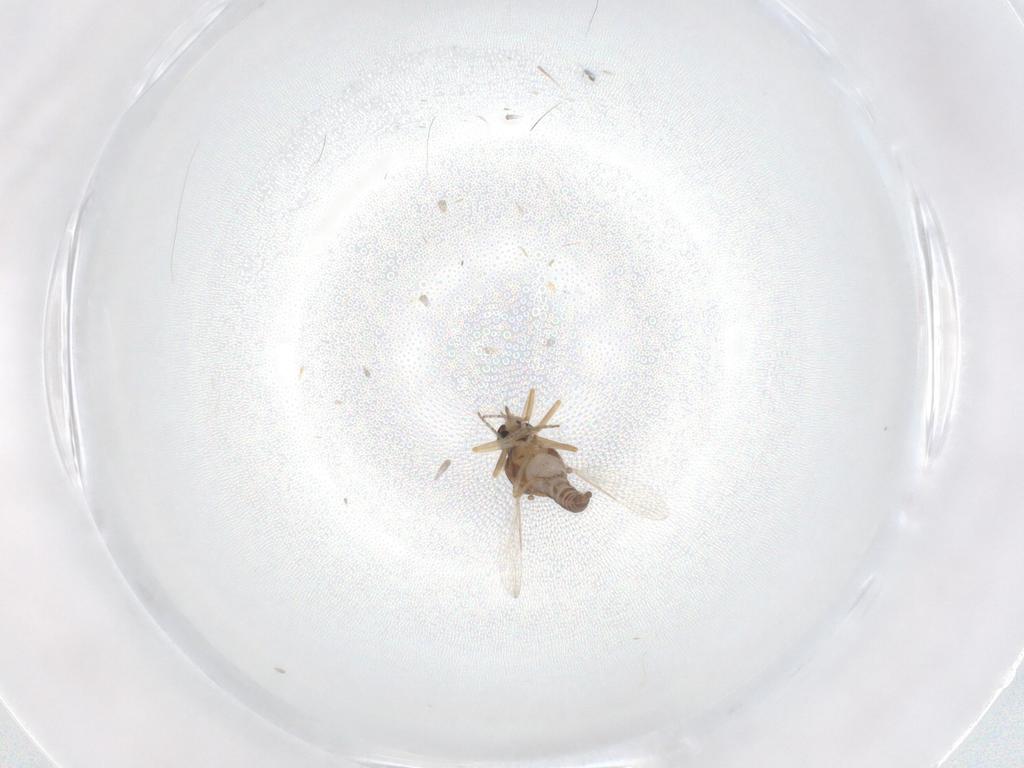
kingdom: Animalia
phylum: Arthropoda
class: Insecta
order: Diptera
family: Ceratopogonidae
